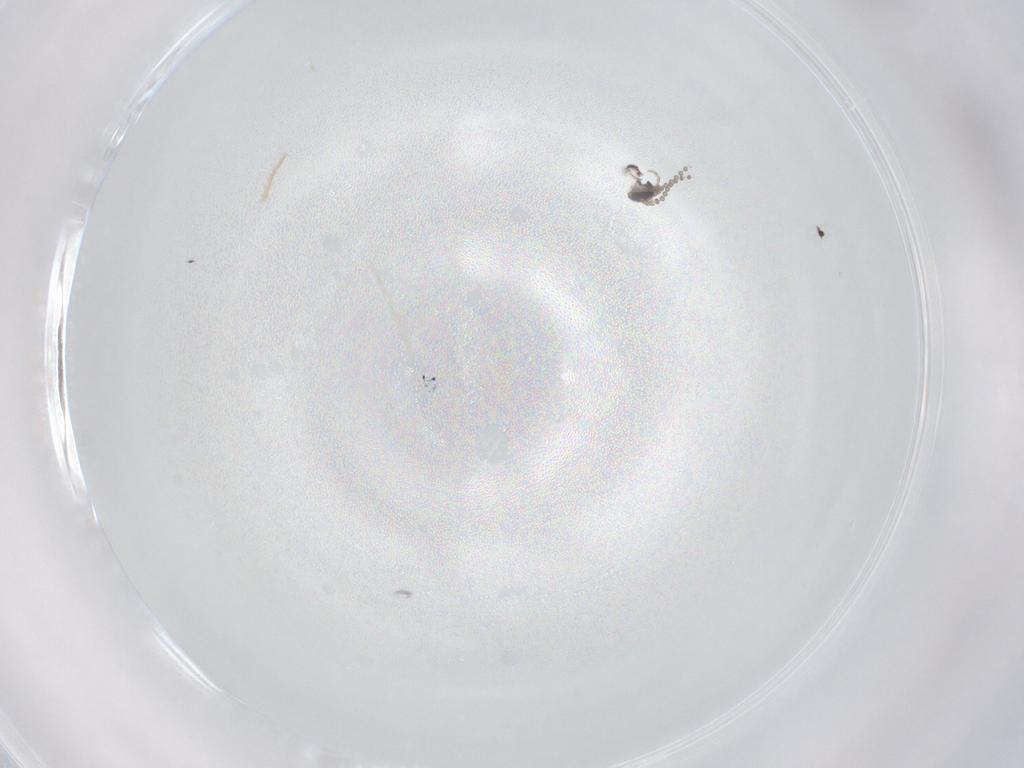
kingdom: Animalia
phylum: Arthropoda
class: Insecta
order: Diptera
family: Psychodidae
